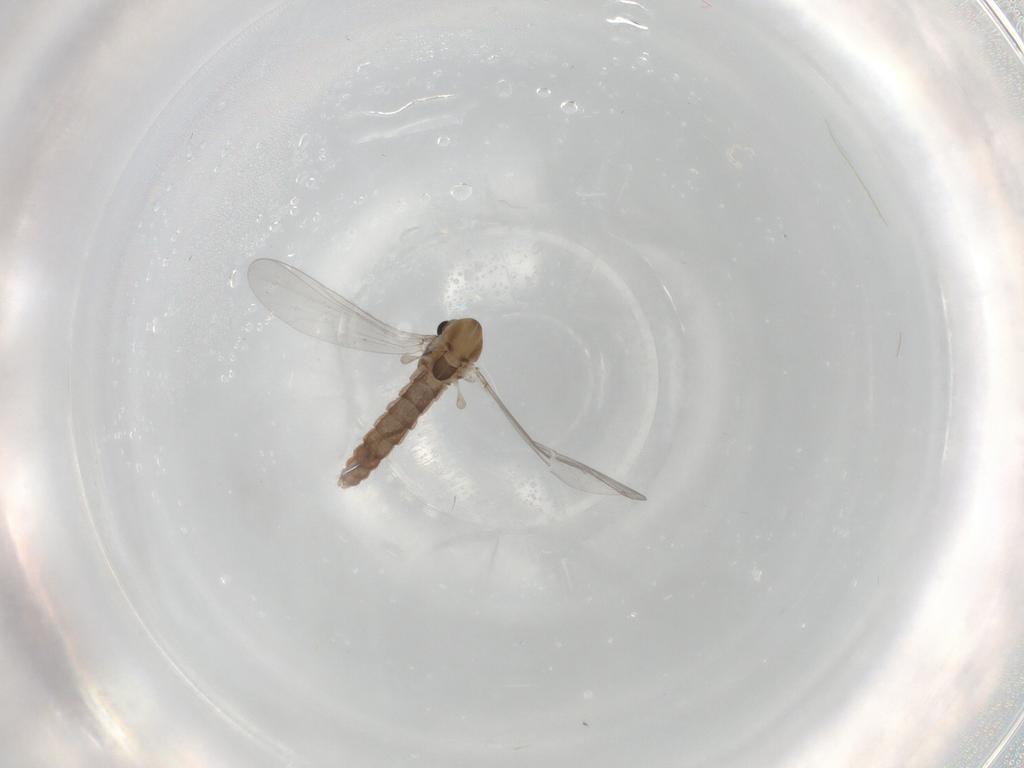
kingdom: Animalia
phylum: Arthropoda
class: Insecta
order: Diptera
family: Chironomidae
